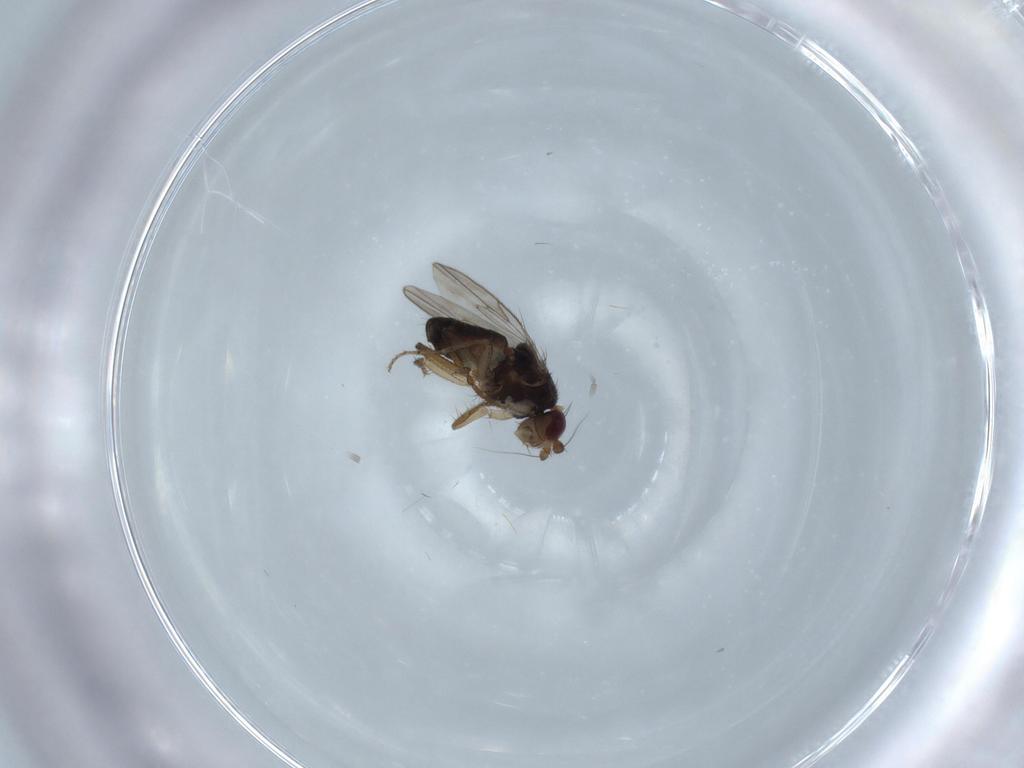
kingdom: Animalia
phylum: Arthropoda
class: Insecta
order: Diptera
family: Sphaeroceridae
